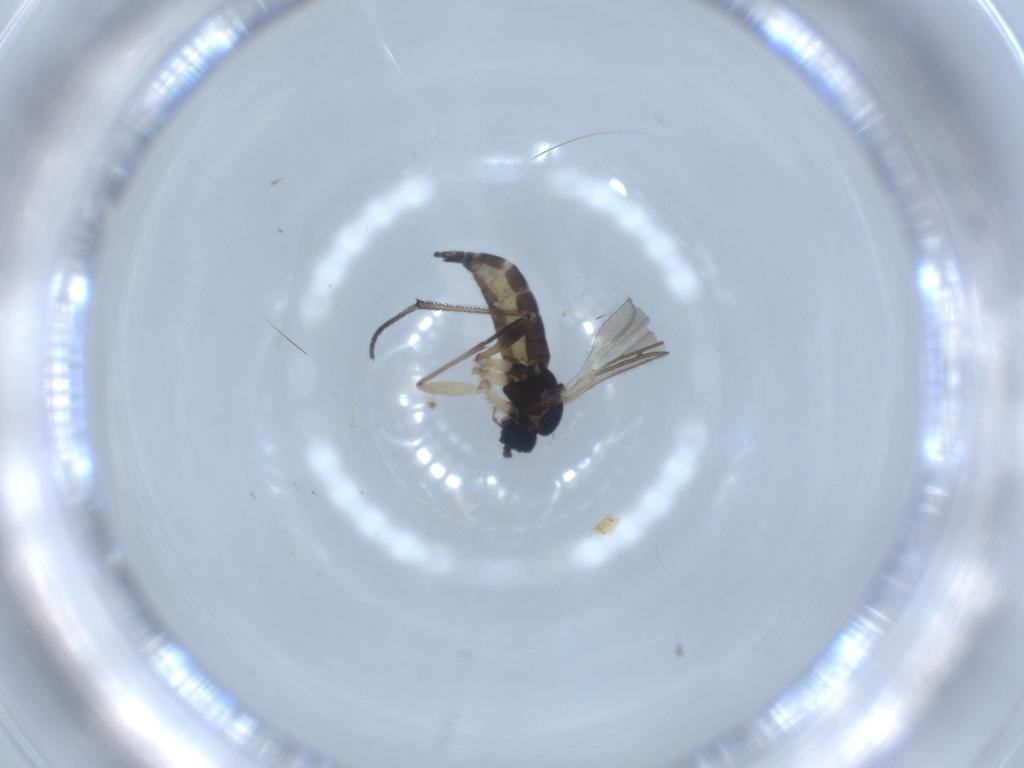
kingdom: Animalia
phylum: Arthropoda
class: Insecta
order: Diptera
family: Sciaridae
